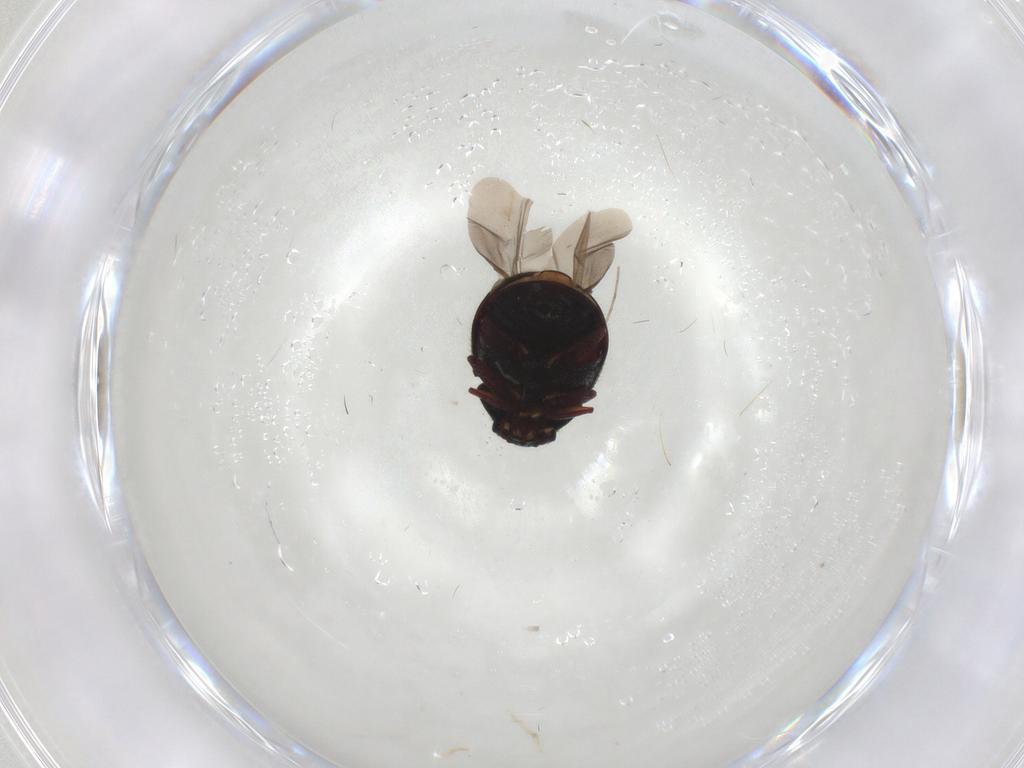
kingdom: Animalia
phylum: Arthropoda
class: Insecta
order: Coleoptera
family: Ptinidae
